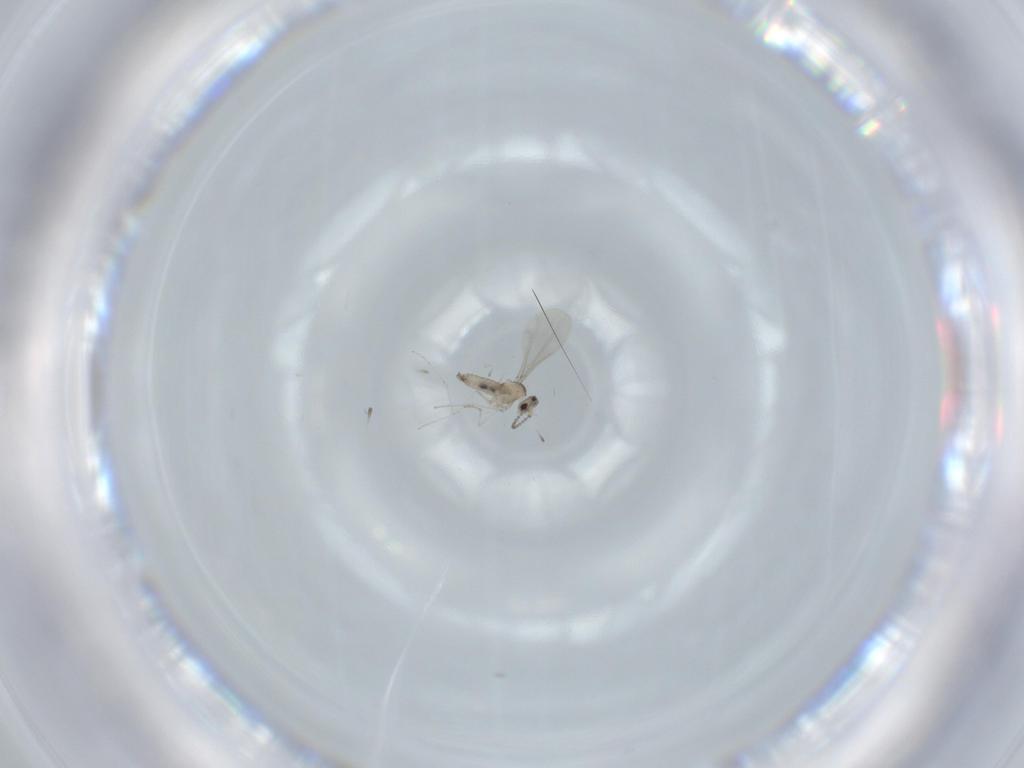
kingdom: Animalia
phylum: Arthropoda
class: Insecta
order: Diptera
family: Cecidomyiidae
